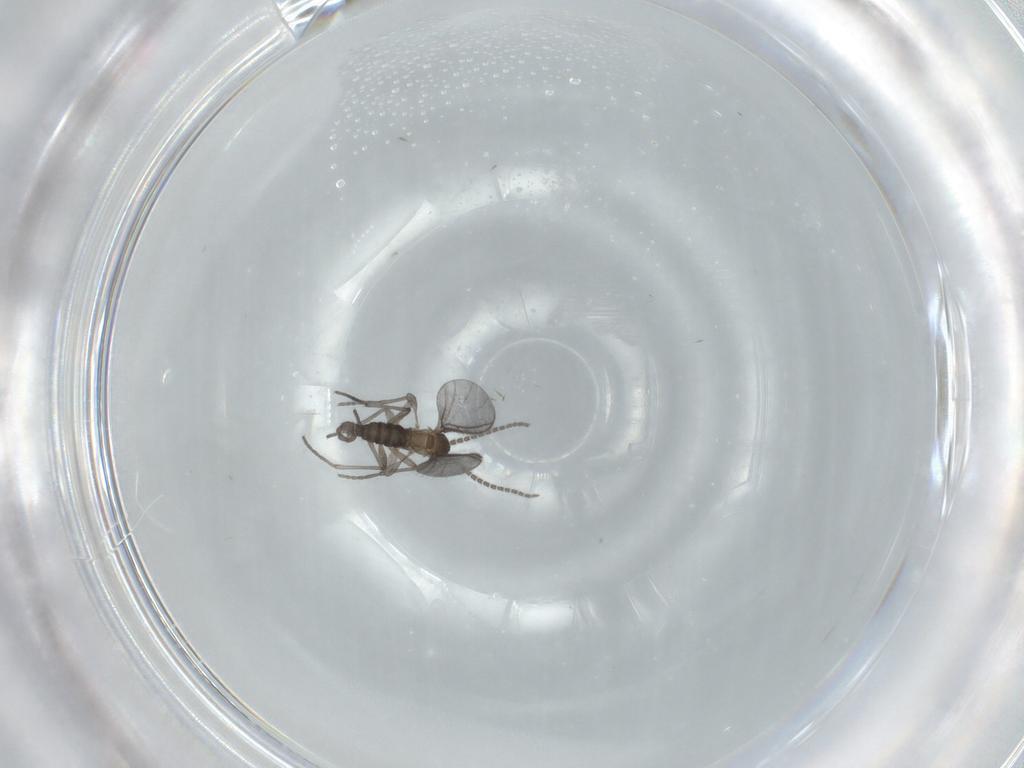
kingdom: Animalia
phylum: Arthropoda
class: Insecta
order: Diptera
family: Sciaridae
